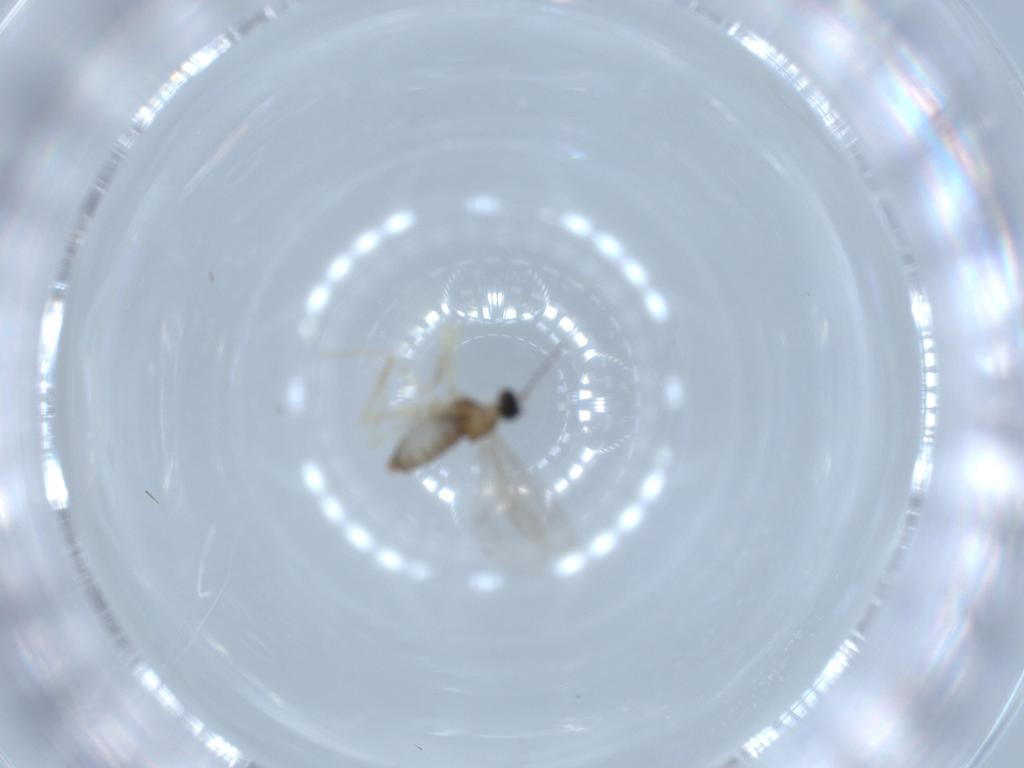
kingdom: Animalia
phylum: Arthropoda
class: Insecta
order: Diptera
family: Cecidomyiidae
